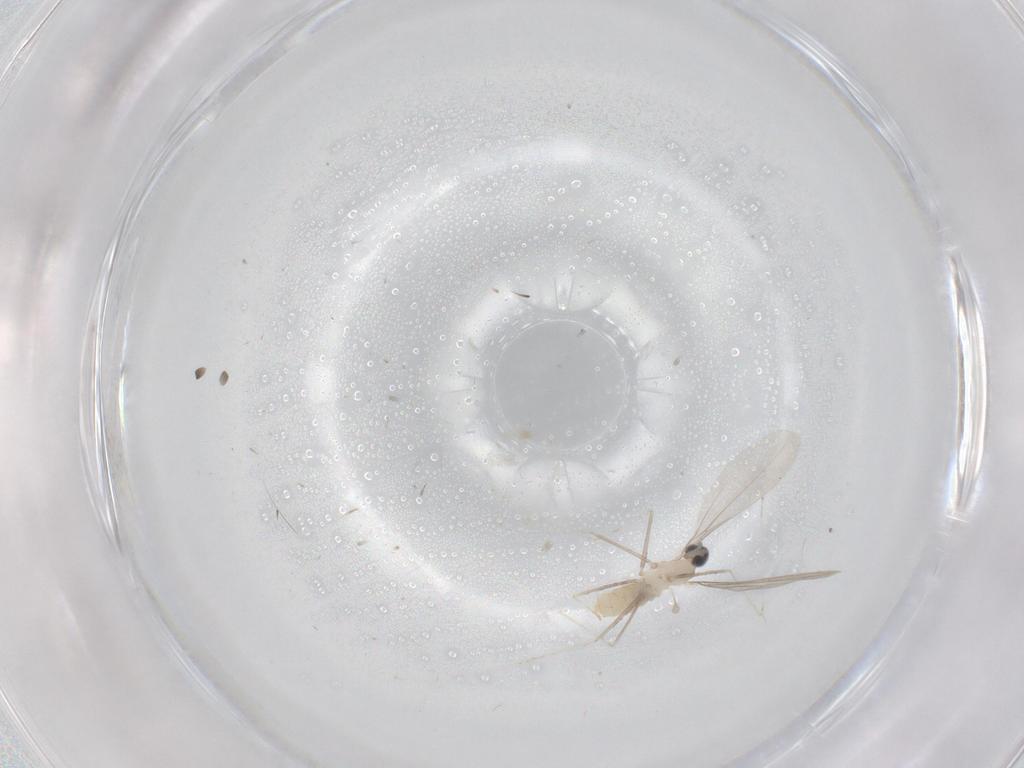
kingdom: Animalia
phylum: Arthropoda
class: Insecta
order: Diptera
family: Cecidomyiidae
